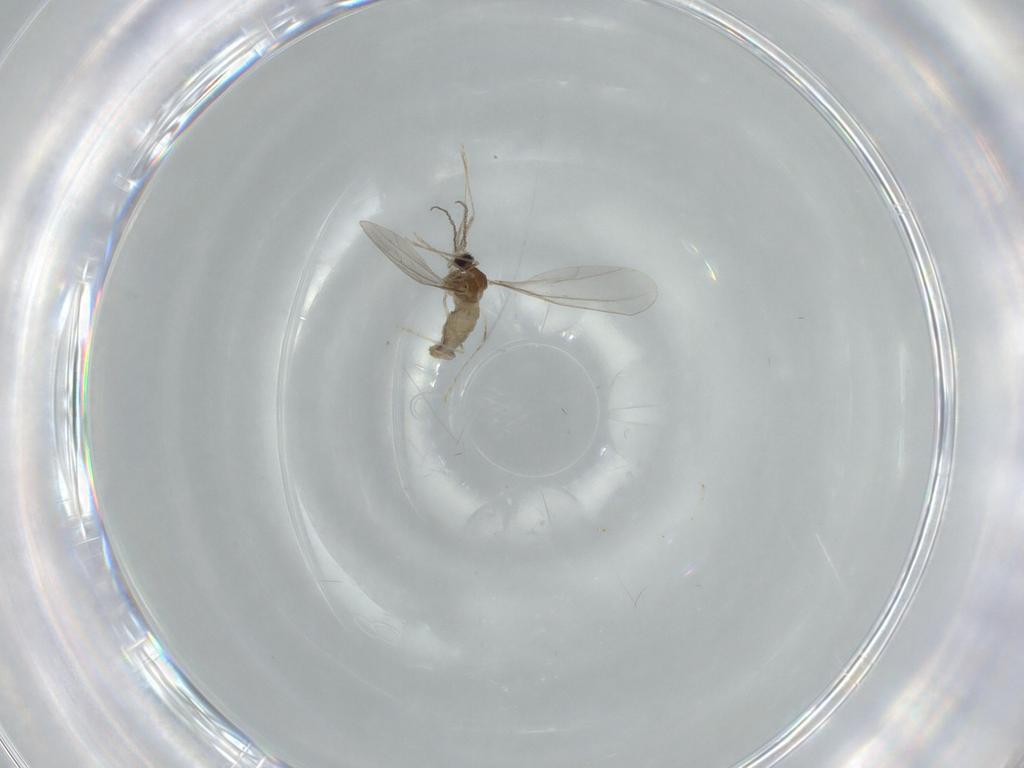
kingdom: Animalia
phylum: Arthropoda
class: Insecta
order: Diptera
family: Cecidomyiidae
